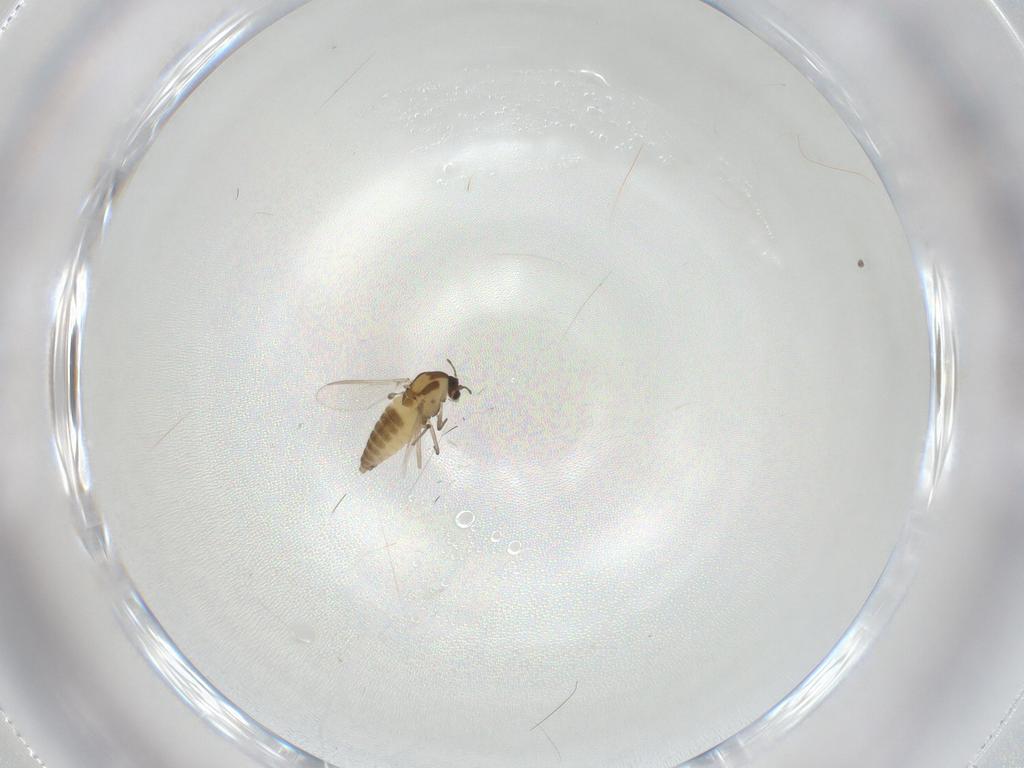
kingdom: Animalia
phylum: Arthropoda
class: Insecta
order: Diptera
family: Chironomidae
